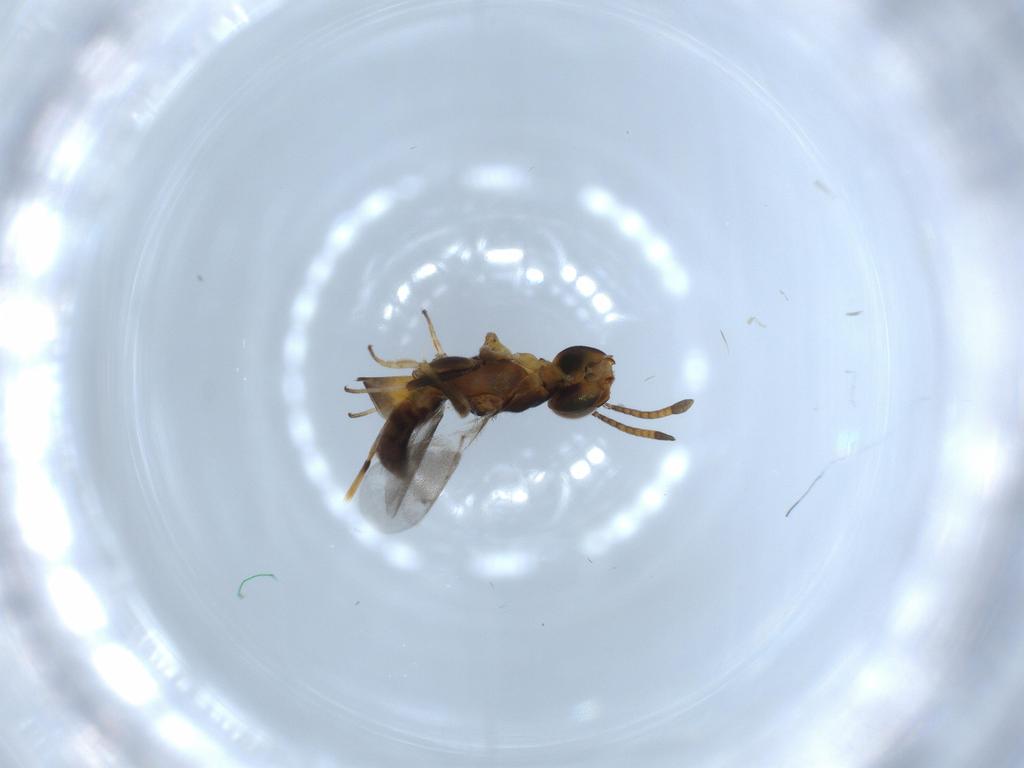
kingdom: Animalia
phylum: Arthropoda
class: Insecta
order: Hymenoptera
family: Eupelmidae
